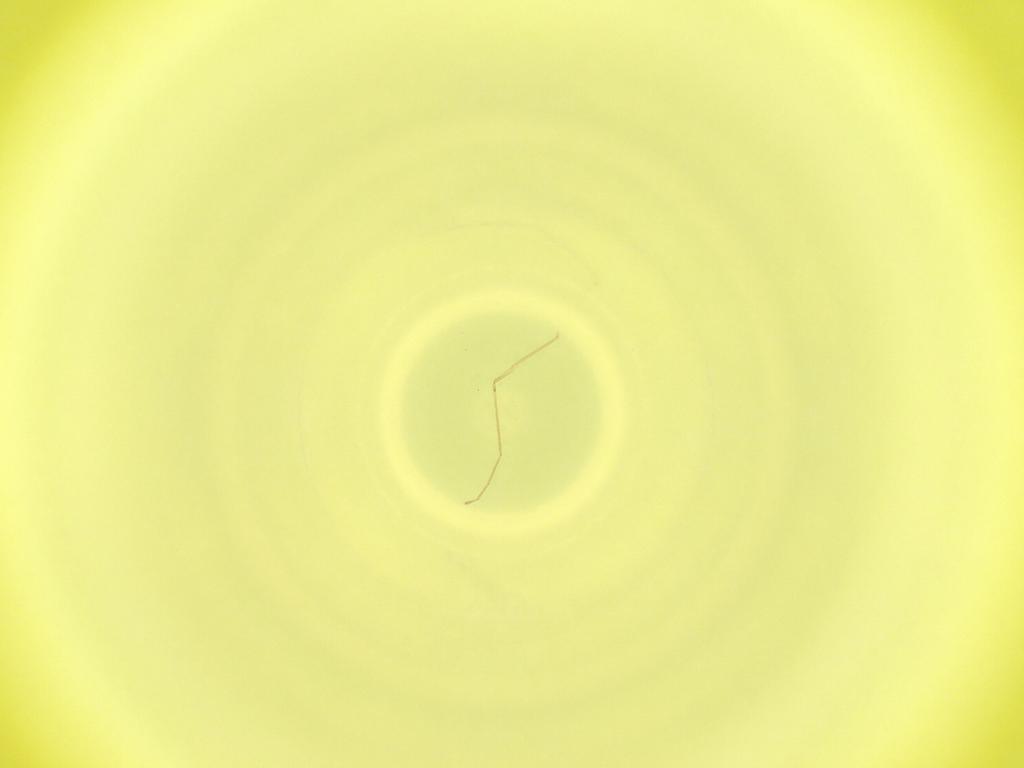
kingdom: Animalia
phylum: Arthropoda
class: Insecta
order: Diptera
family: Cecidomyiidae
